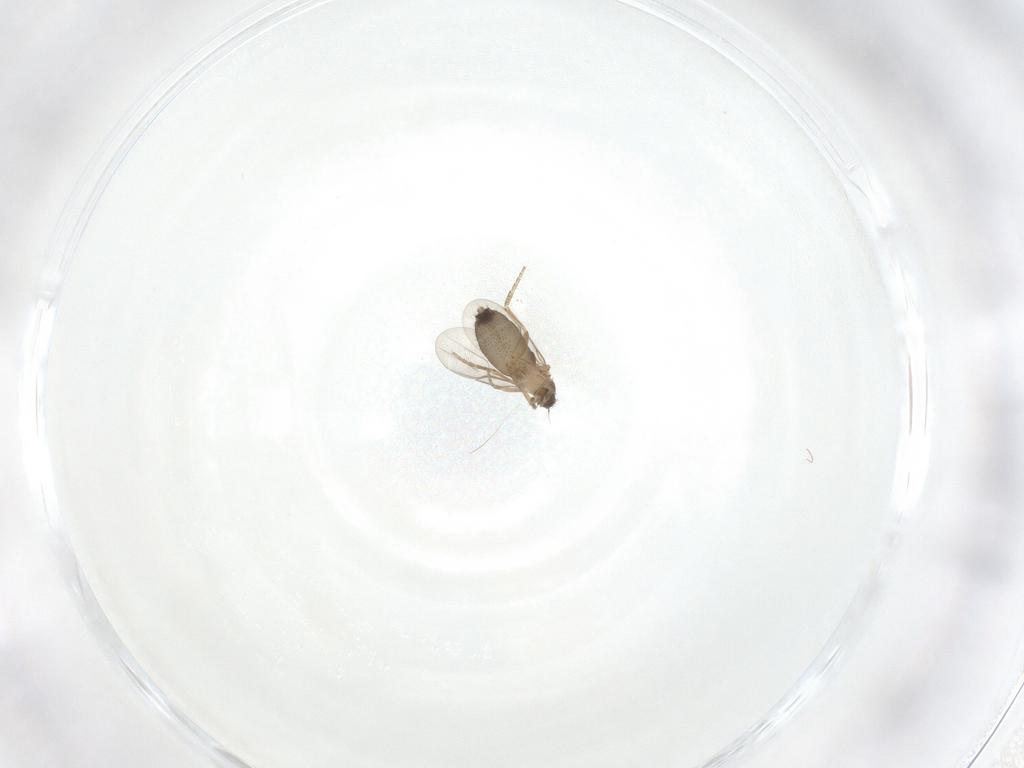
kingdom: Animalia
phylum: Arthropoda
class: Insecta
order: Diptera
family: Phoridae
